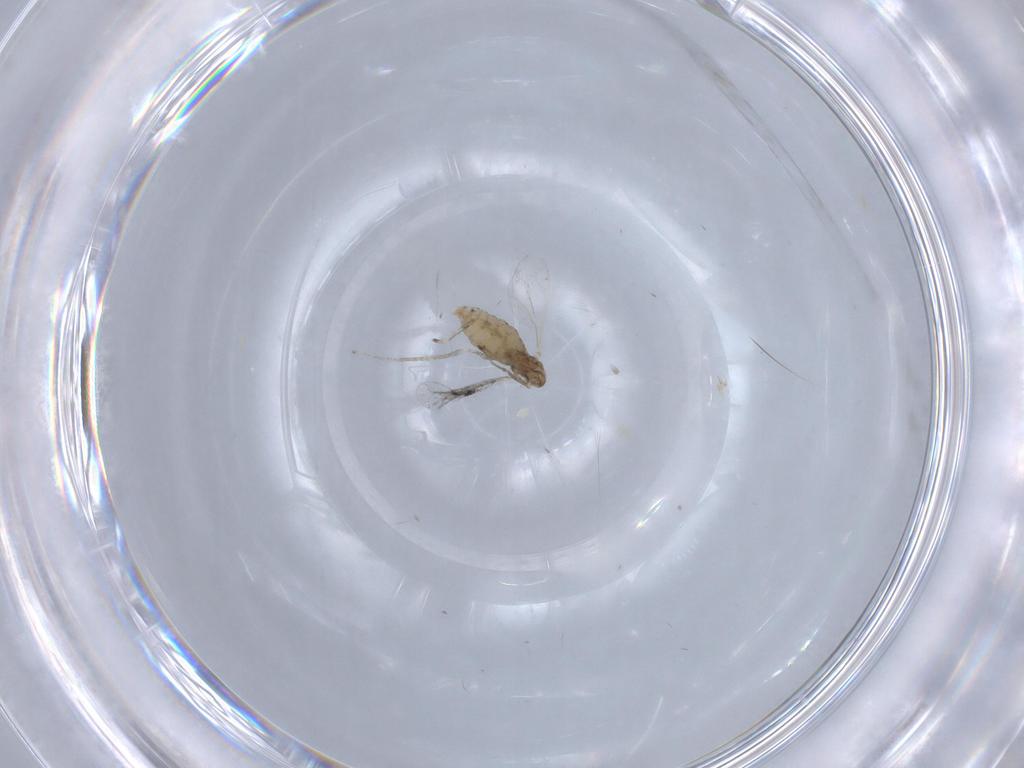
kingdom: Animalia
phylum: Arthropoda
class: Insecta
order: Diptera
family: Cecidomyiidae
